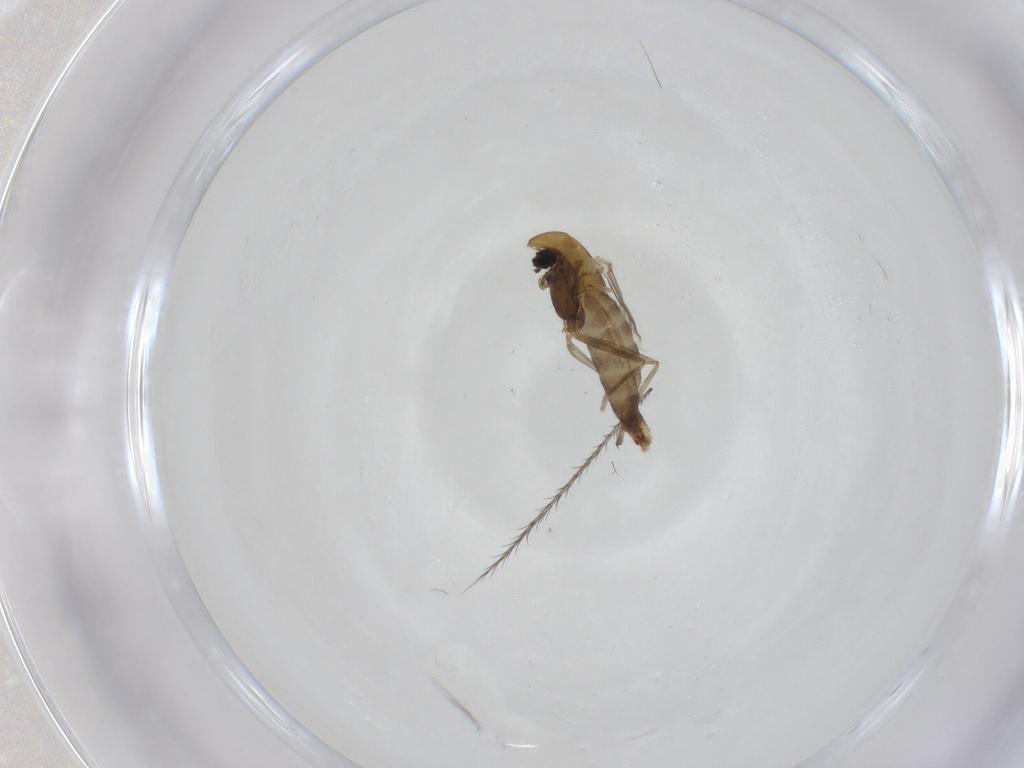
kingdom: Animalia
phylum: Arthropoda
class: Insecta
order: Diptera
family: Chironomidae
